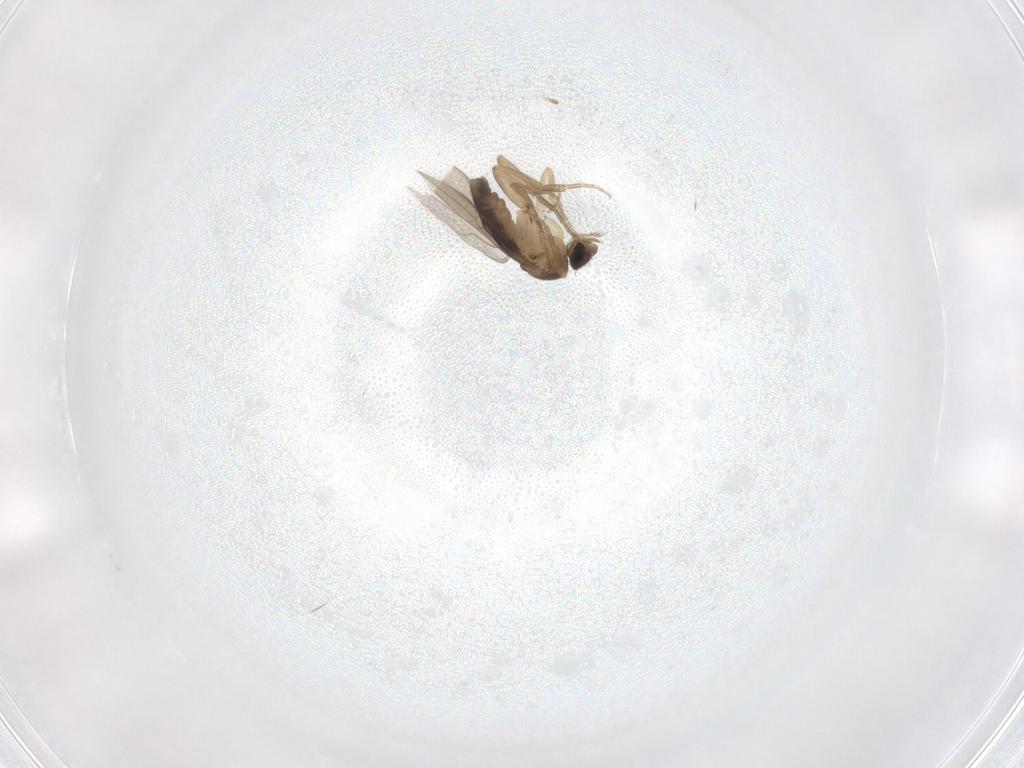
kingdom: Animalia
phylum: Arthropoda
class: Insecta
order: Diptera
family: Phoridae
